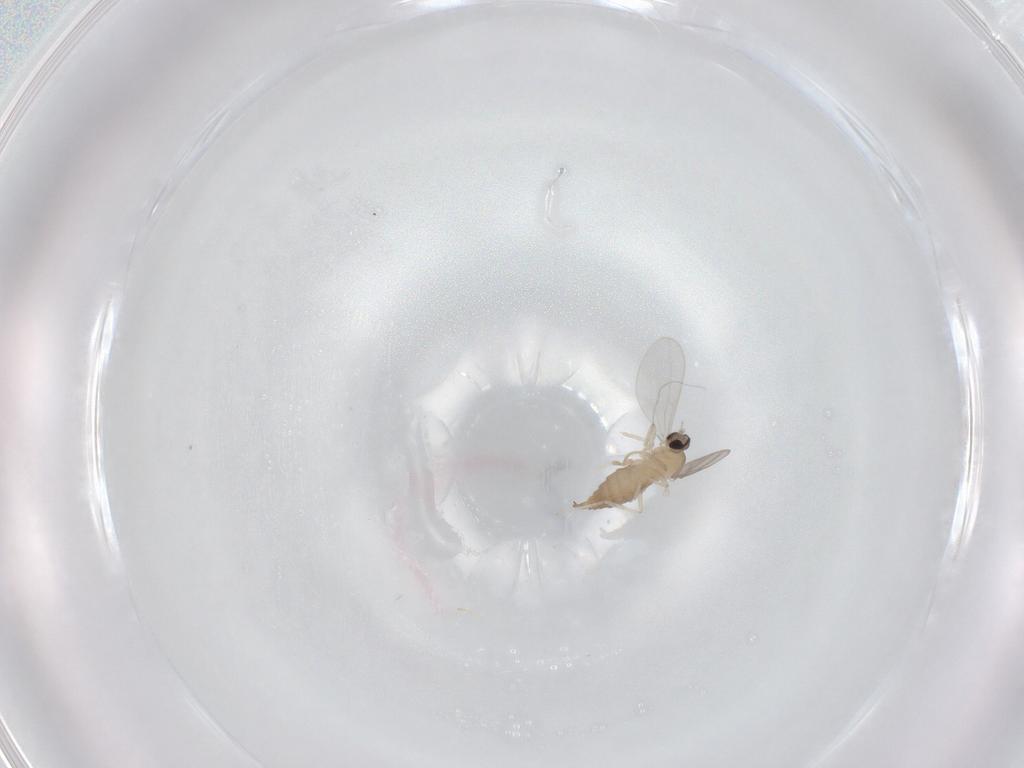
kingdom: Animalia
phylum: Arthropoda
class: Insecta
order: Diptera
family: Cecidomyiidae
